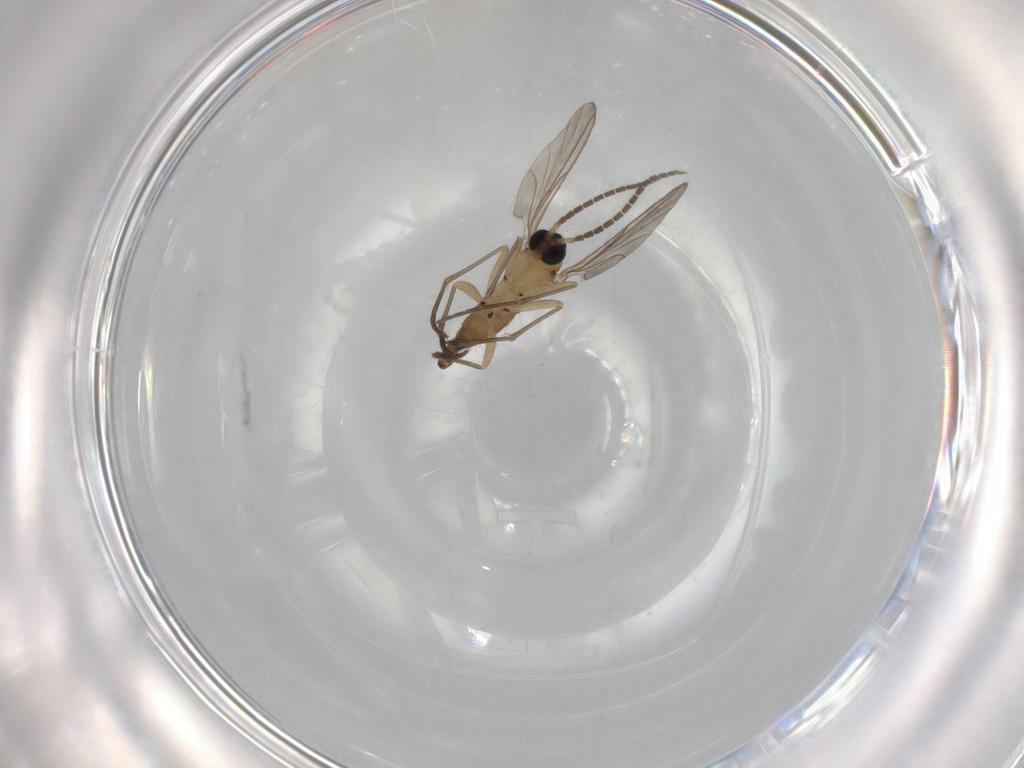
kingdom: Animalia
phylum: Arthropoda
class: Insecta
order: Diptera
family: Sciaridae
